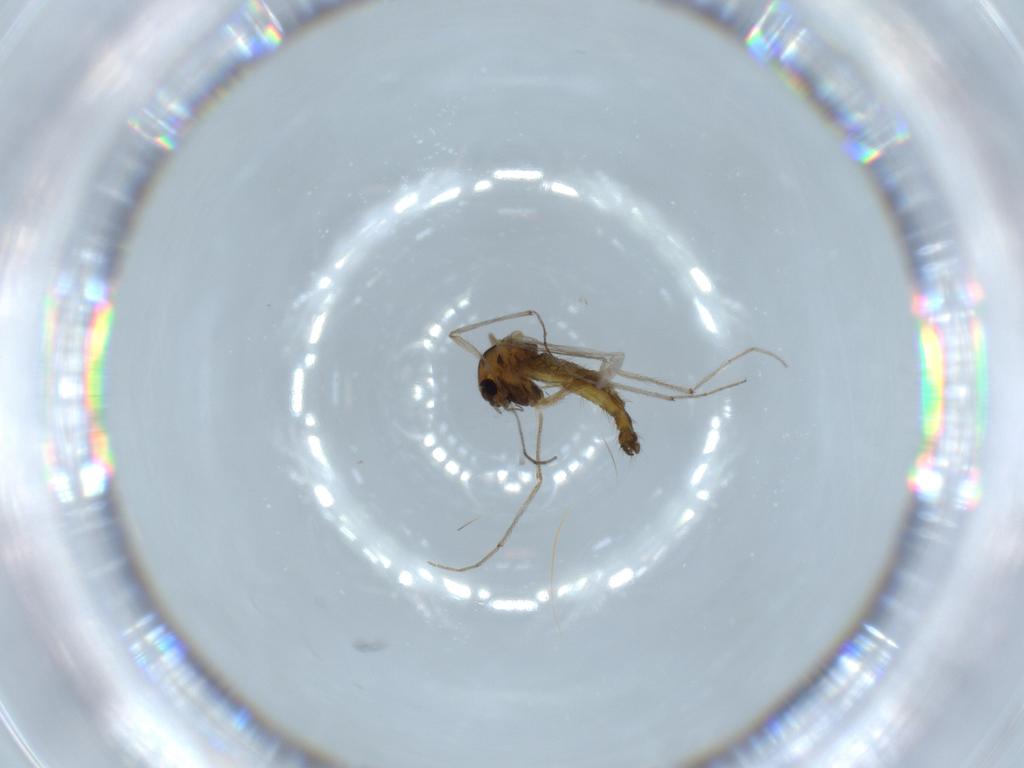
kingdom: Animalia
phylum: Arthropoda
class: Insecta
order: Diptera
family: Chironomidae
